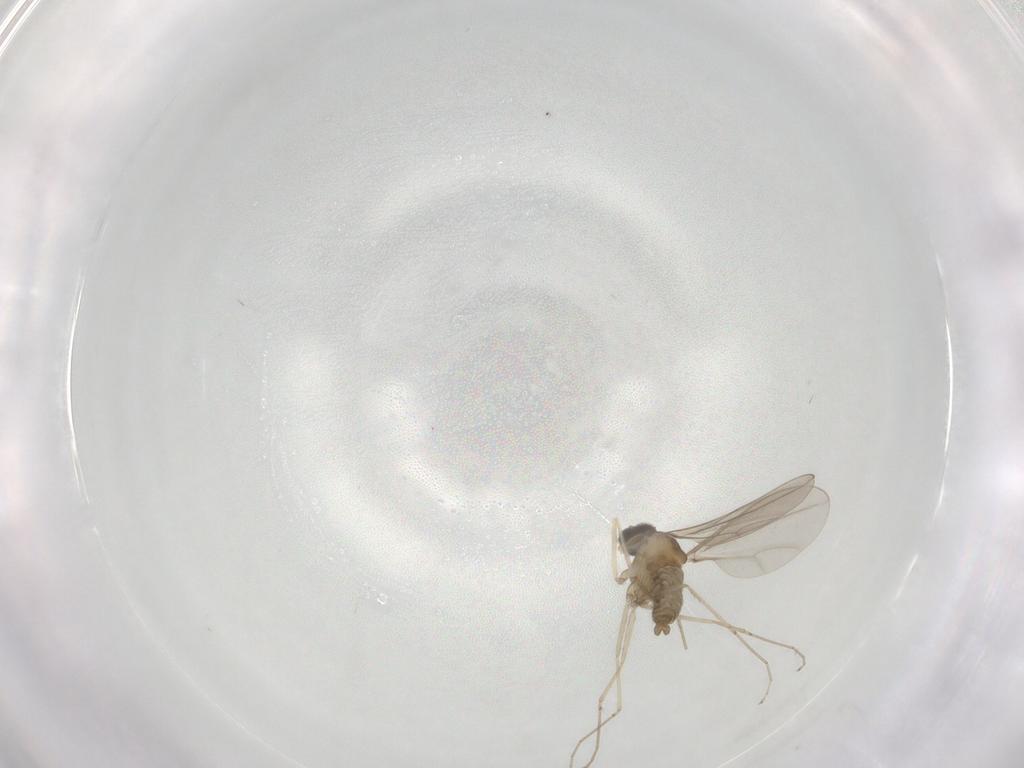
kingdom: Animalia
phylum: Arthropoda
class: Insecta
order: Diptera
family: Cecidomyiidae
